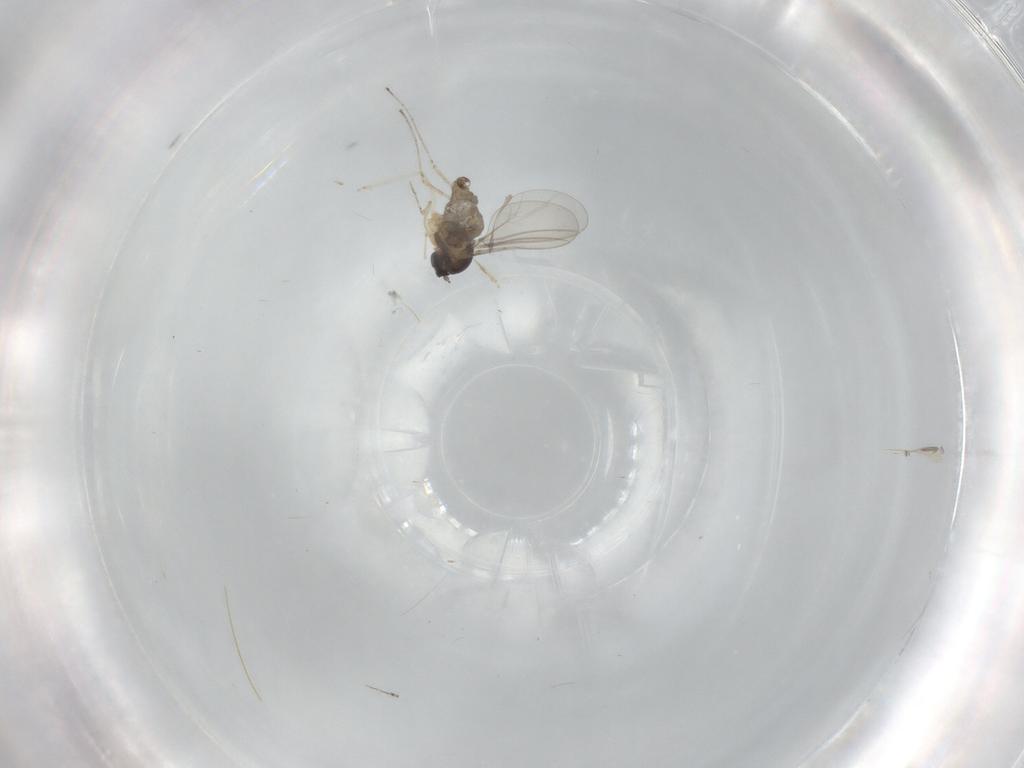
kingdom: Animalia
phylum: Arthropoda
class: Insecta
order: Diptera
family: Cecidomyiidae
